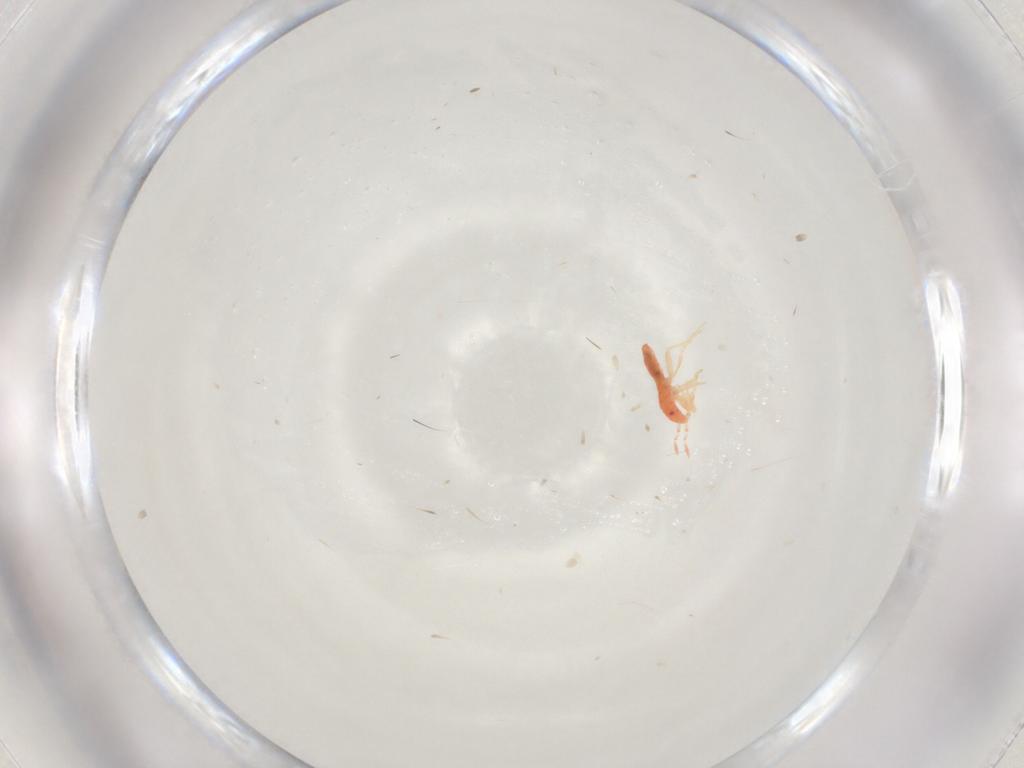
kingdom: Animalia
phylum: Arthropoda
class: Insecta
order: Hemiptera
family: Anthocoridae
